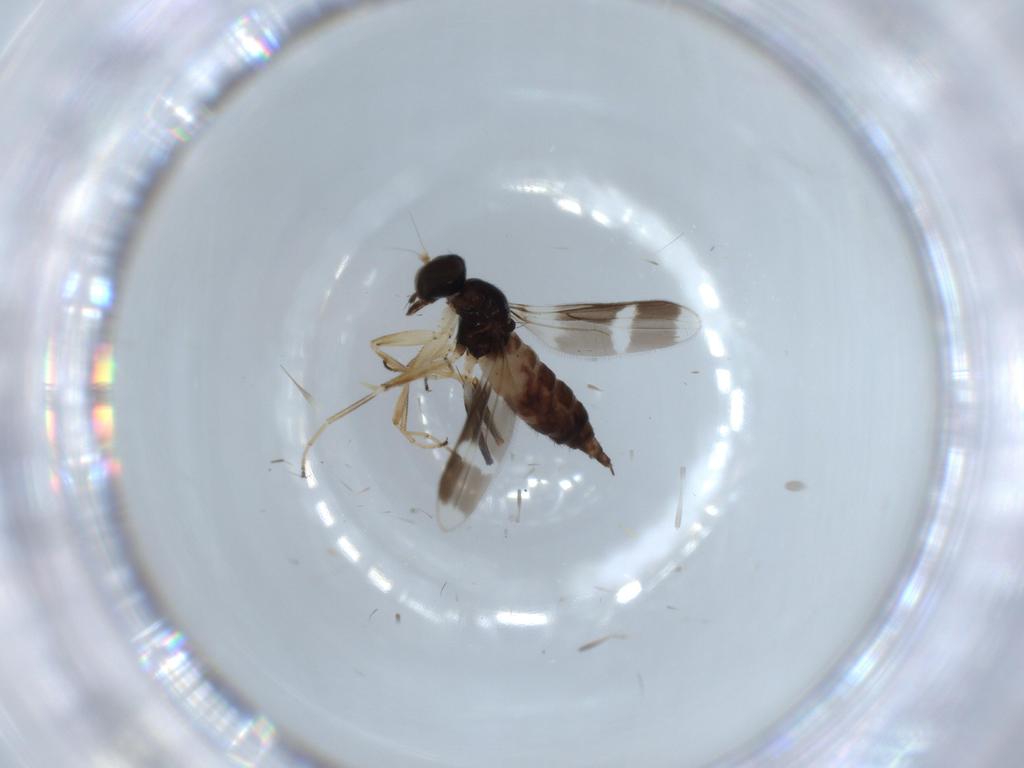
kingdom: Animalia
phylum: Arthropoda
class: Insecta
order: Diptera
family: Hybotidae
